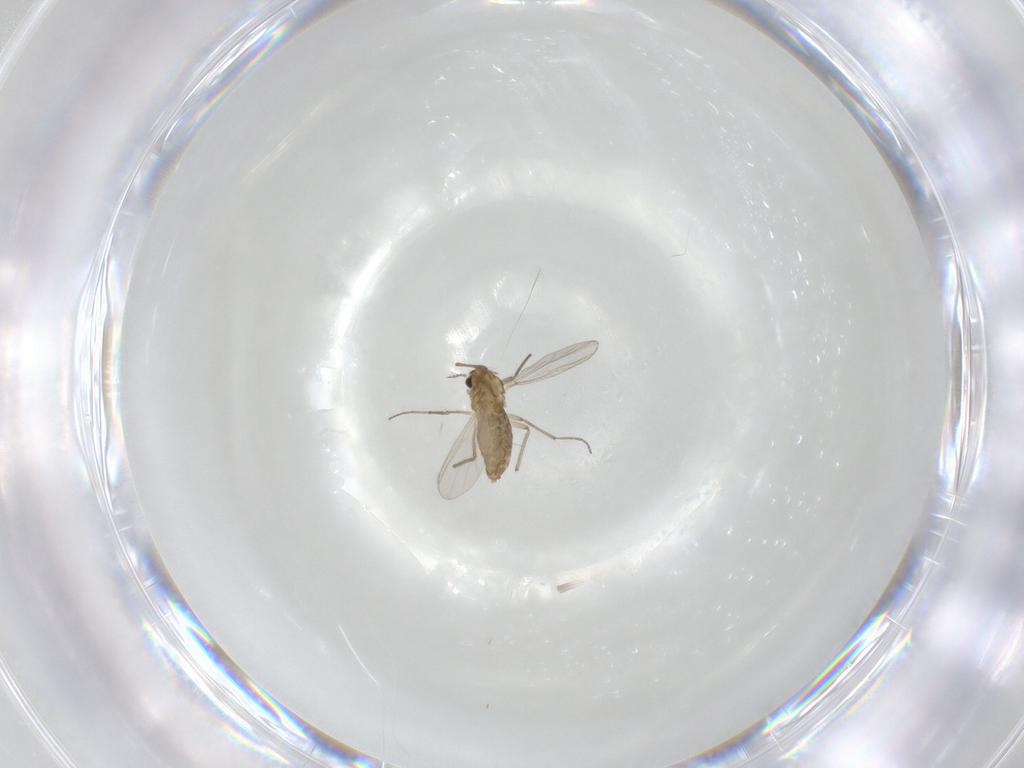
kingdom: Animalia
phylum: Arthropoda
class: Insecta
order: Diptera
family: Chironomidae
